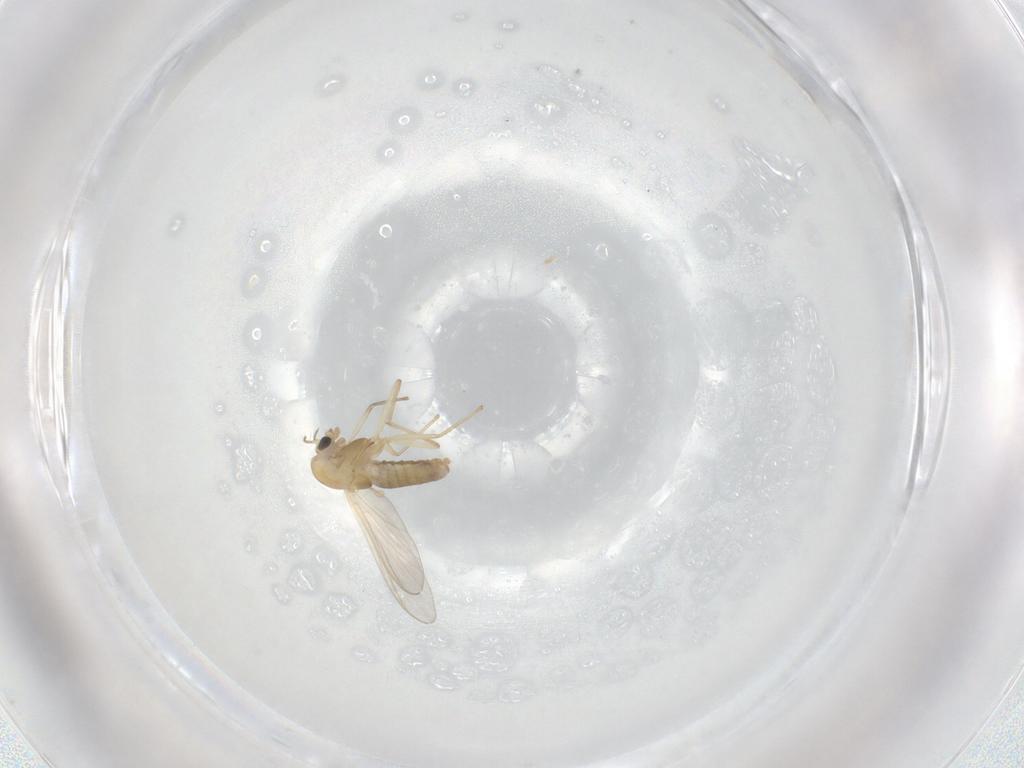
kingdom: Animalia
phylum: Arthropoda
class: Insecta
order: Diptera
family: Chironomidae
